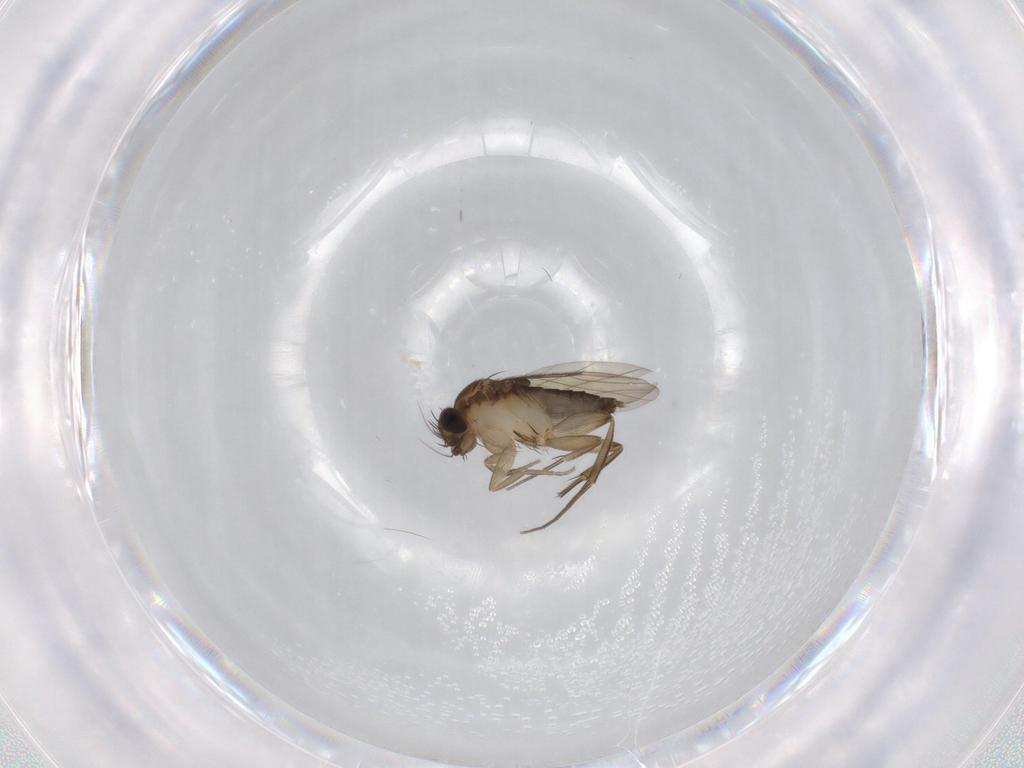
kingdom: Animalia
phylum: Arthropoda
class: Insecta
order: Diptera
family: Phoridae
